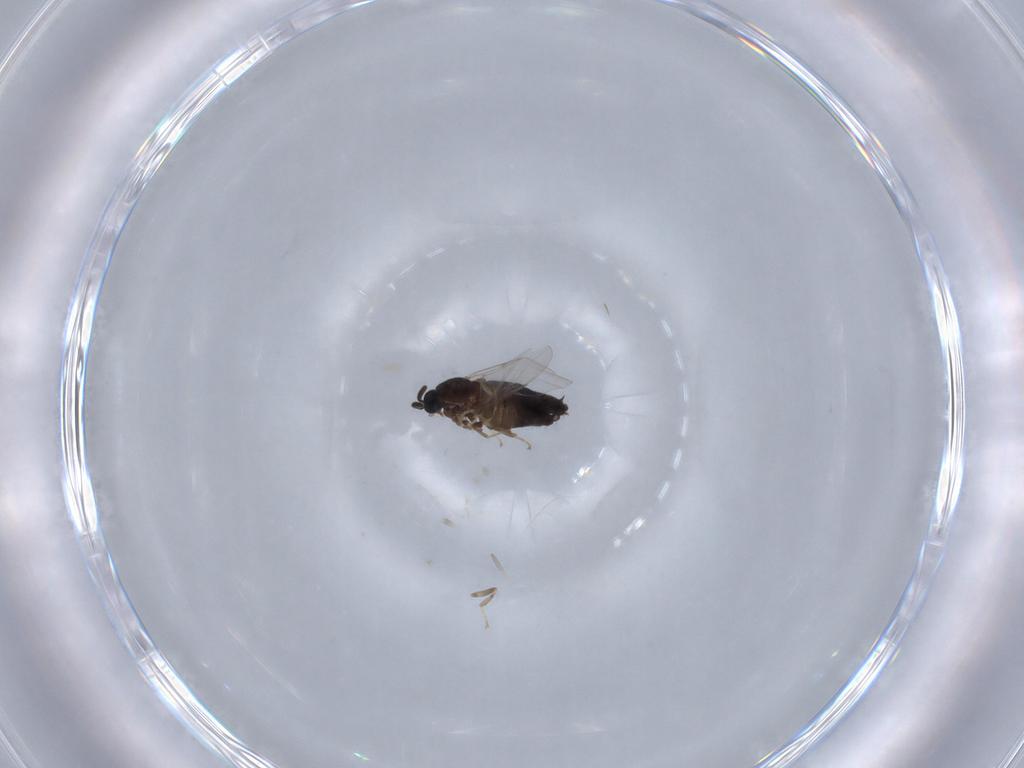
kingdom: Animalia
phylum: Arthropoda
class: Insecta
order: Diptera
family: Scatopsidae
